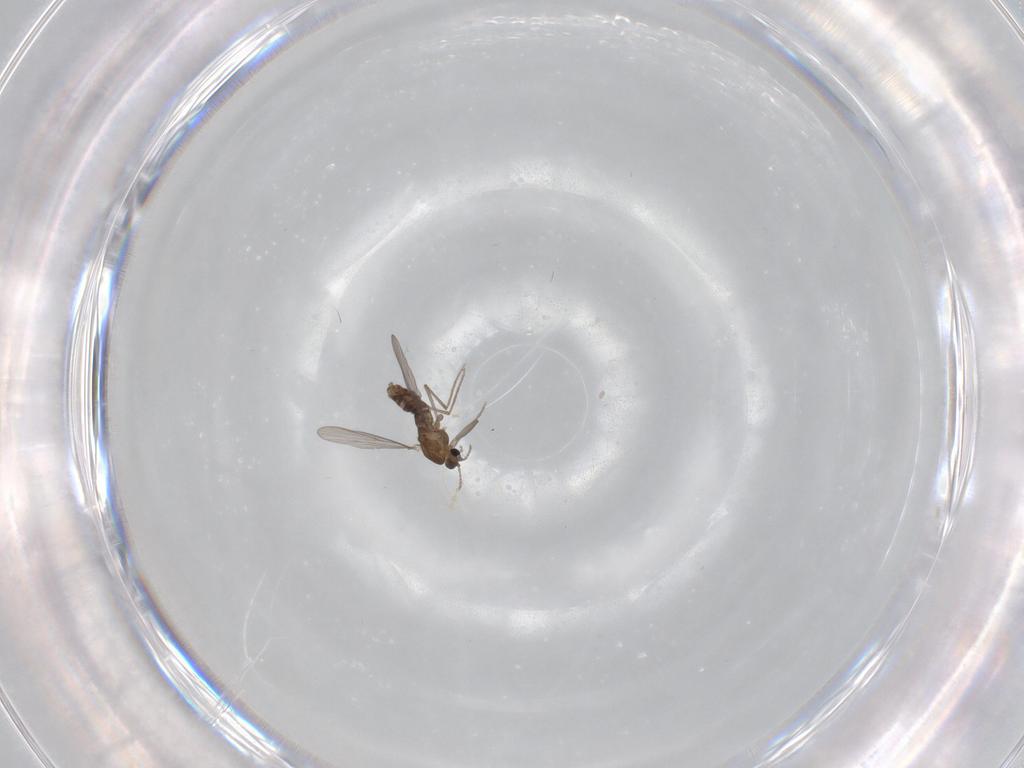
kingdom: Animalia
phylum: Arthropoda
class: Insecta
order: Diptera
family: Chironomidae
